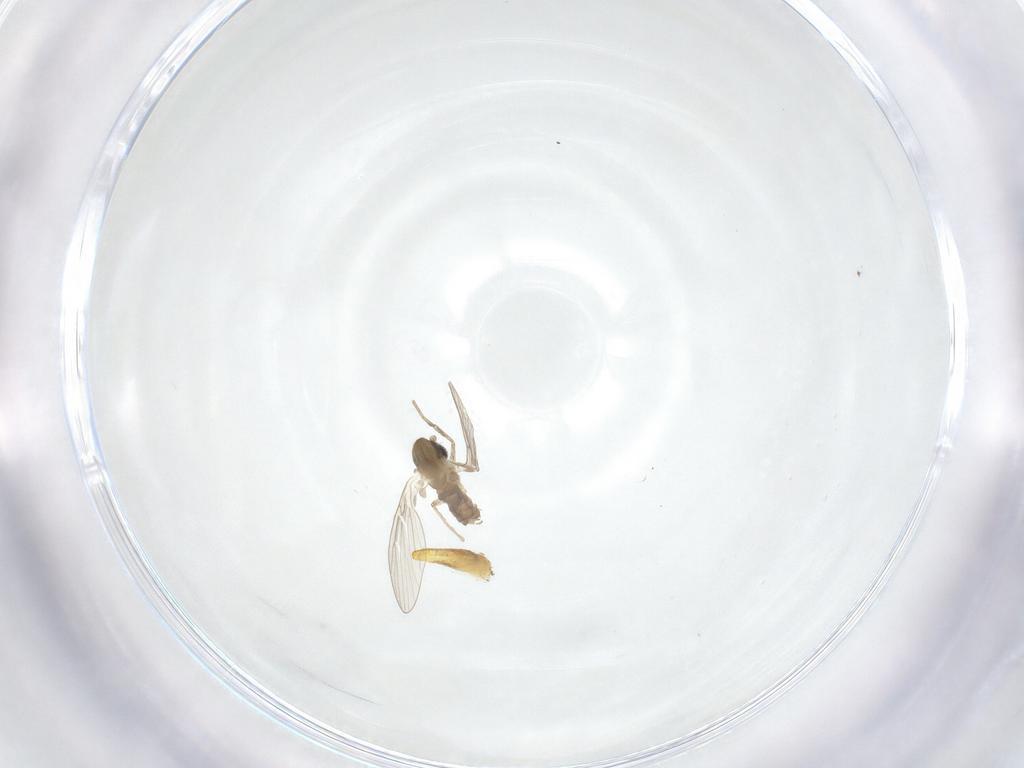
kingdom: Animalia
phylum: Arthropoda
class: Insecta
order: Diptera
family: Psychodidae
